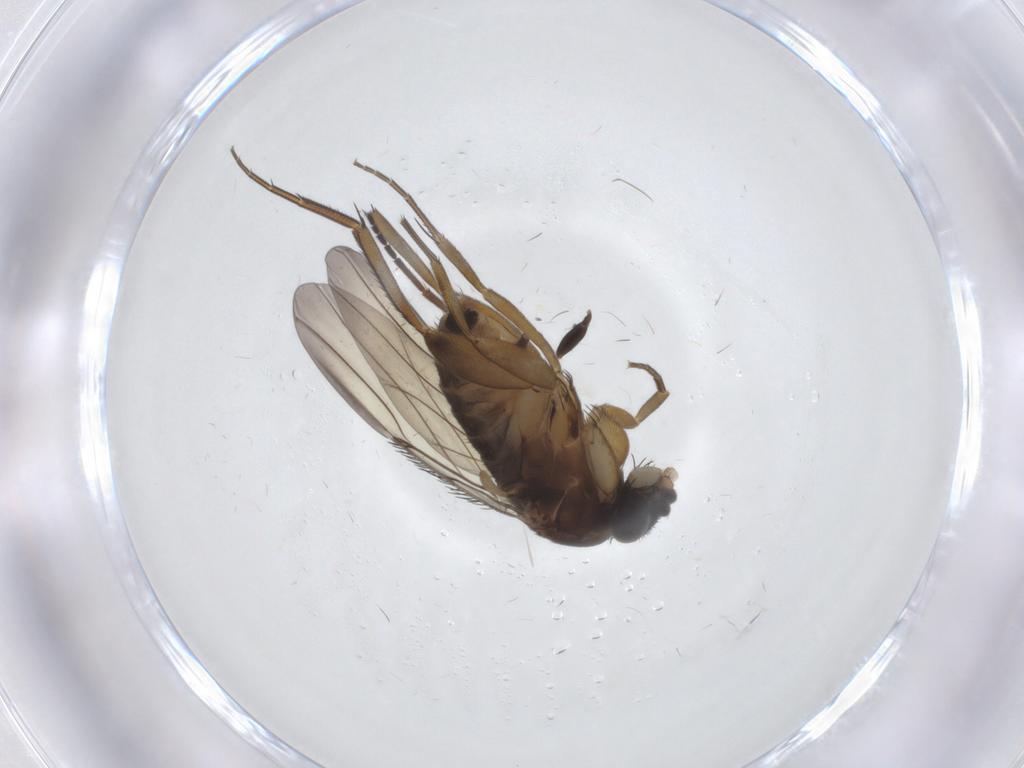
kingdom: Animalia
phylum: Arthropoda
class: Insecta
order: Diptera
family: Phoridae
